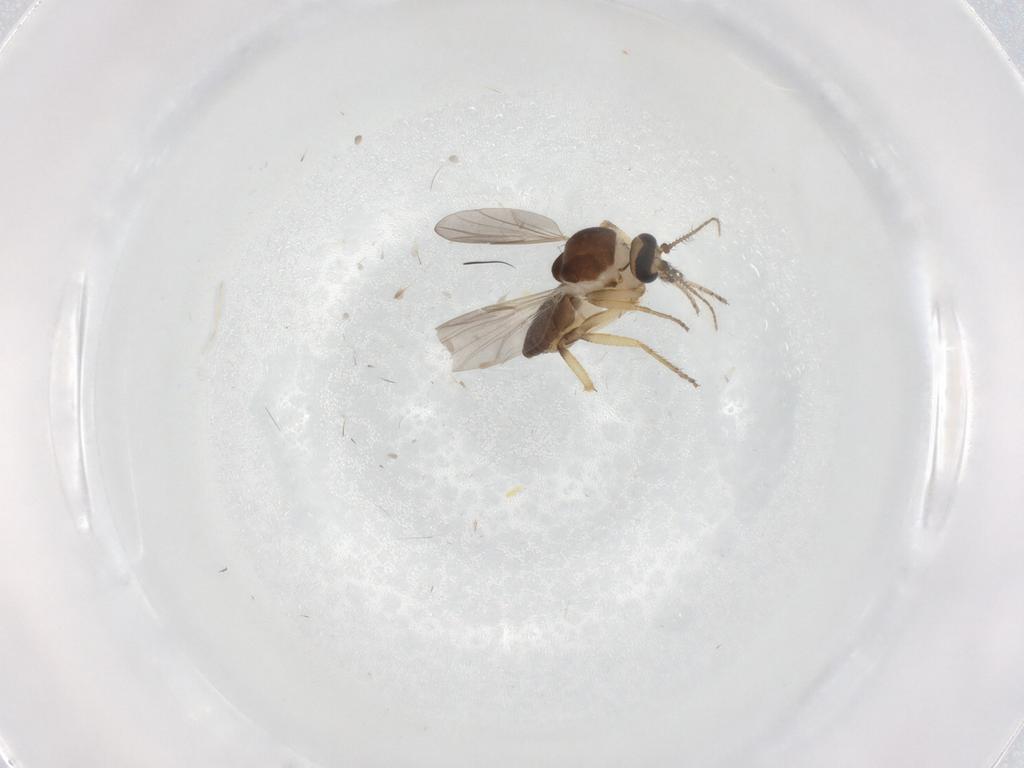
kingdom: Animalia
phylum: Arthropoda
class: Insecta
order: Diptera
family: Ceratopogonidae
